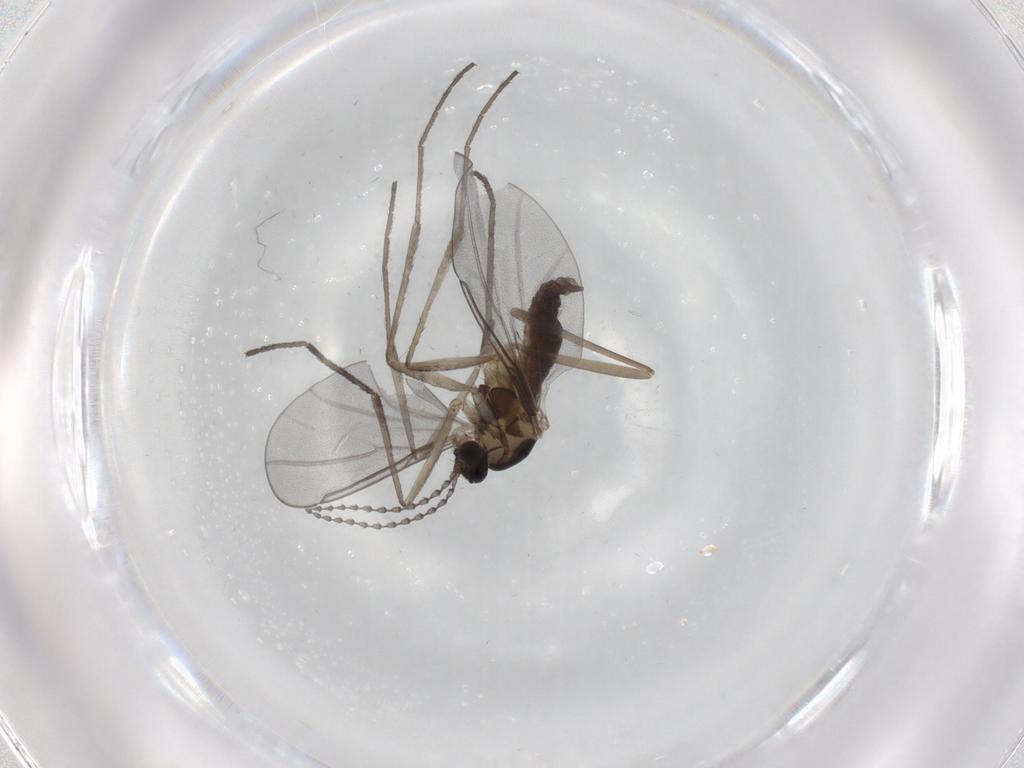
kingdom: Animalia
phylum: Arthropoda
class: Insecta
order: Diptera
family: Cecidomyiidae
